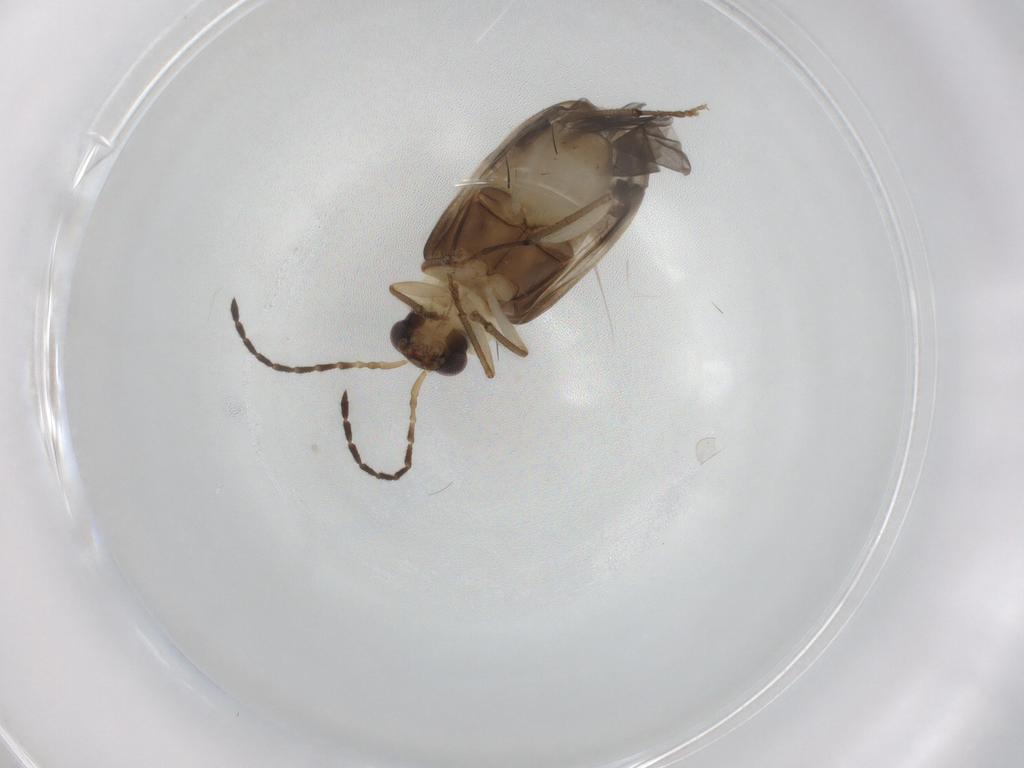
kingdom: Animalia
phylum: Arthropoda
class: Insecta
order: Coleoptera
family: Chrysomelidae
